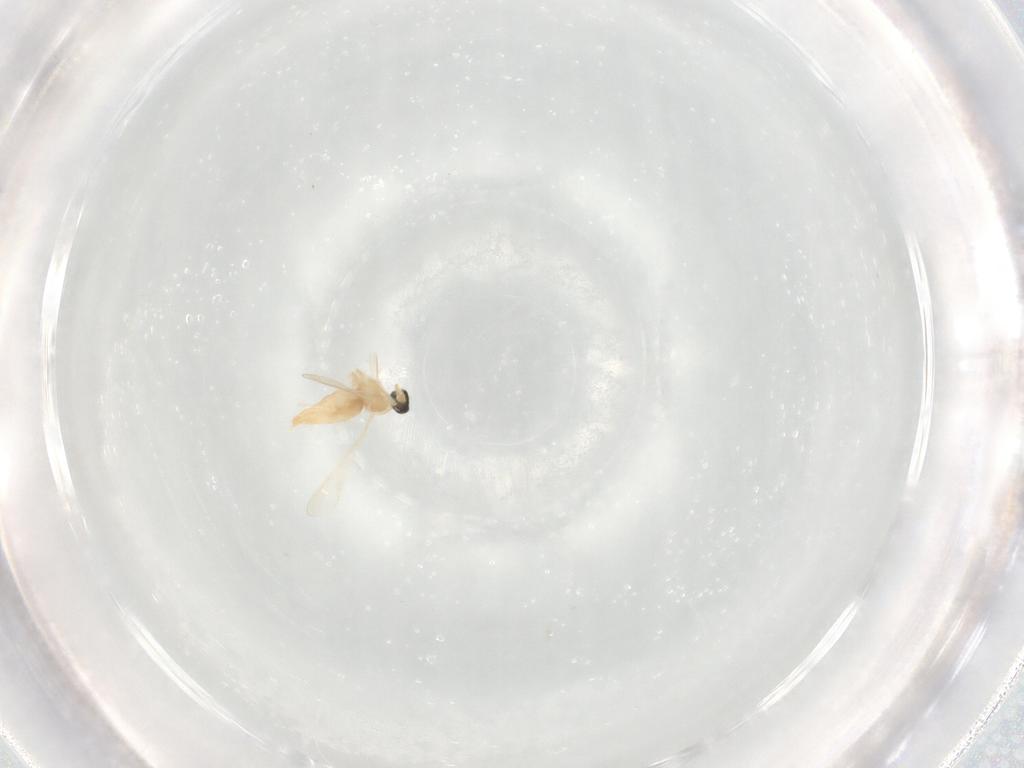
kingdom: Animalia
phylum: Arthropoda
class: Insecta
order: Diptera
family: Cecidomyiidae
